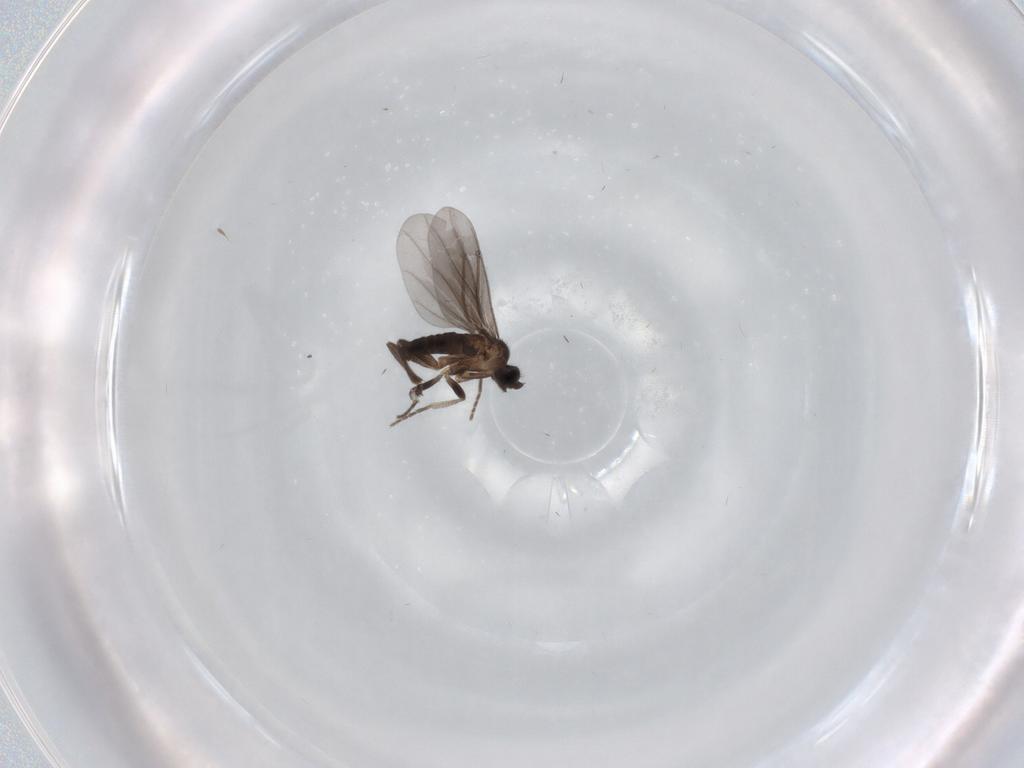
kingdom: Animalia
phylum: Arthropoda
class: Insecta
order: Diptera
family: Phoridae
